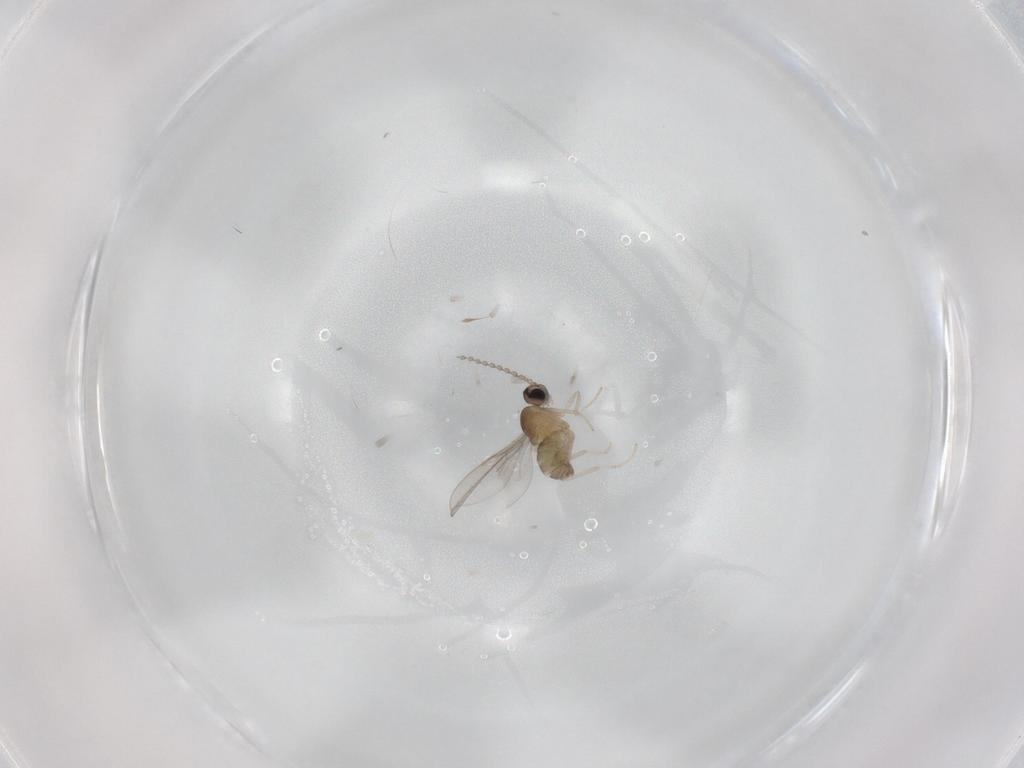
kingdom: Animalia
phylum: Arthropoda
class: Insecta
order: Diptera
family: Cecidomyiidae
